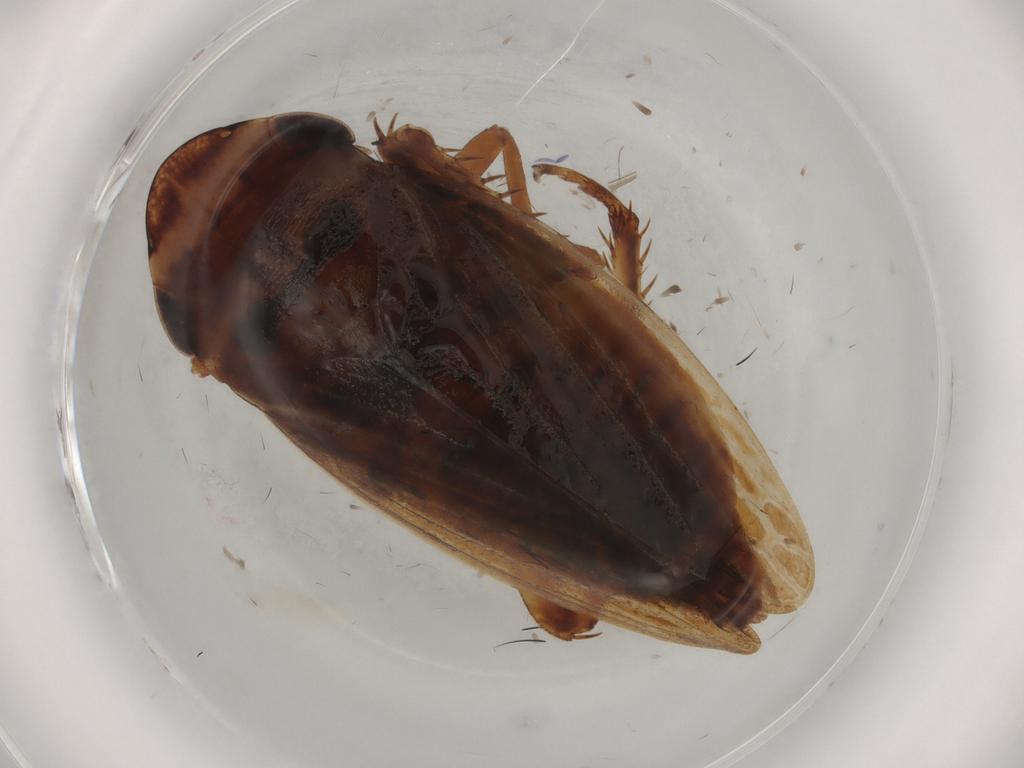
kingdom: Animalia
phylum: Arthropoda
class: Insecta
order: Hemiptera
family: Cicadellidae
